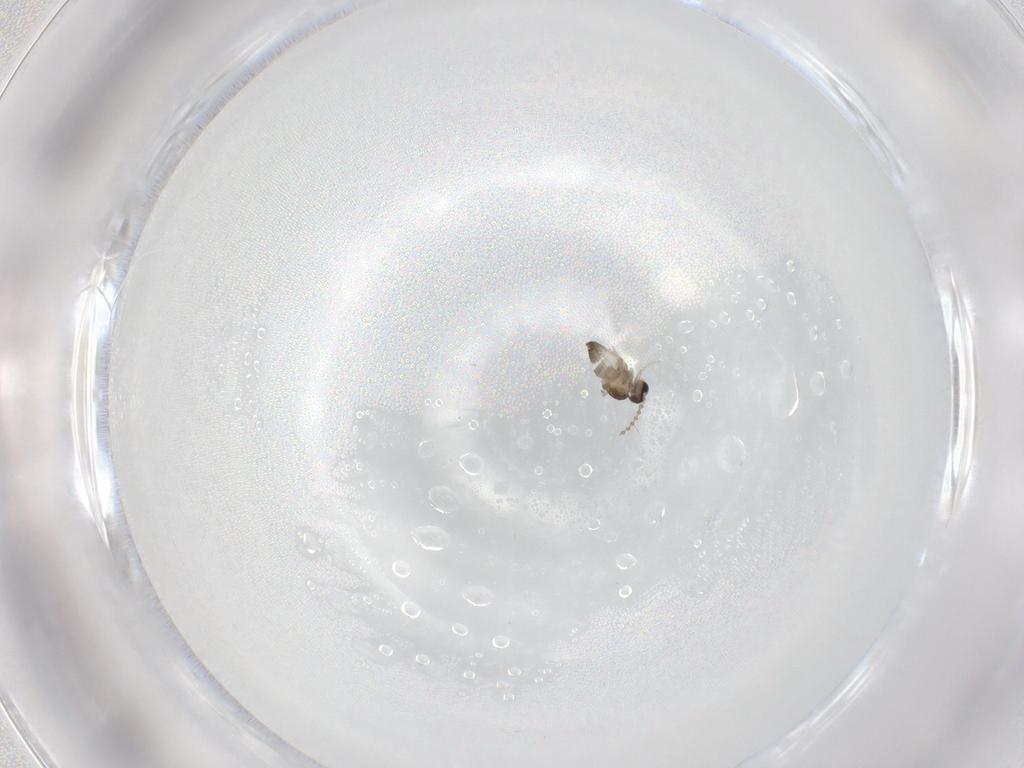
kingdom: Animalia
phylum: Arthropoda
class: Insecta
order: Diptera
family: Cecidomyiidae
